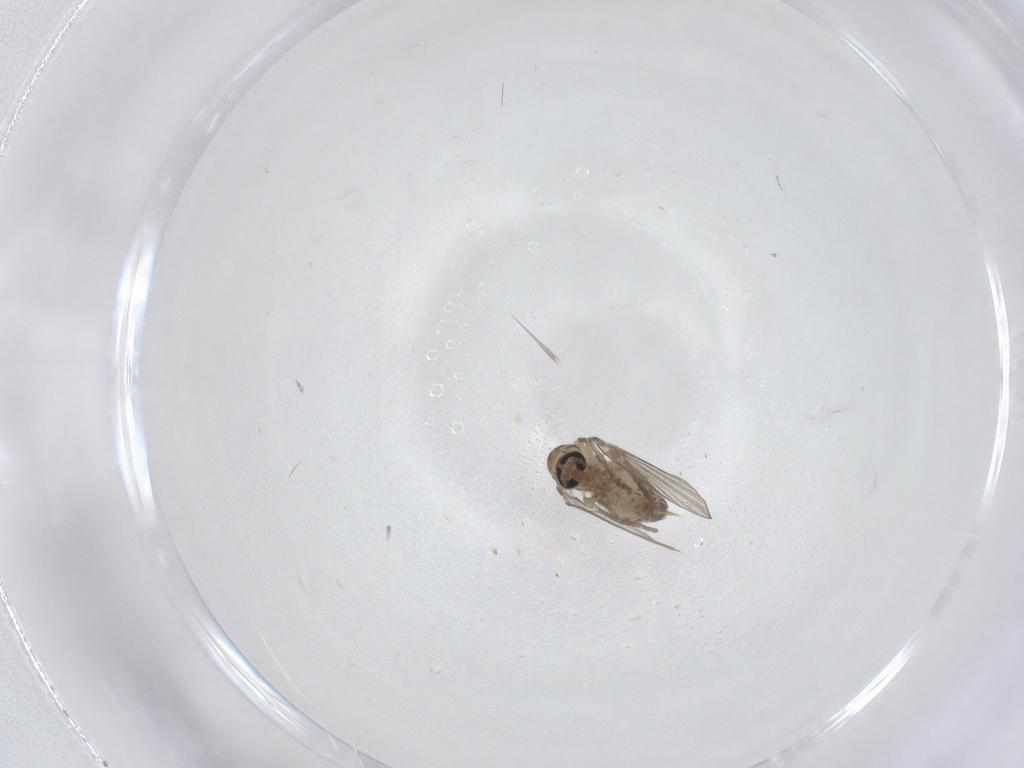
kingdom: Animalia
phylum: Arthropoda
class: Insecta
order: Diptera
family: Psychodidae
